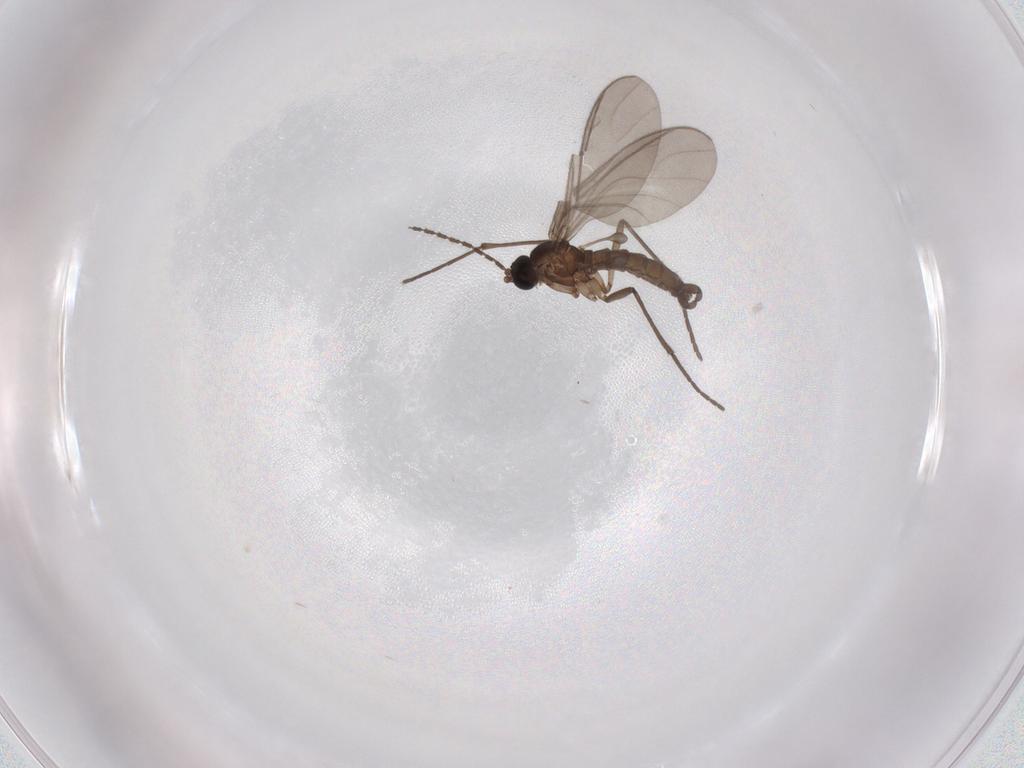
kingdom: Animalia
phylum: Arthropoda
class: Insecta
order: Diptera
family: Sciaridae
